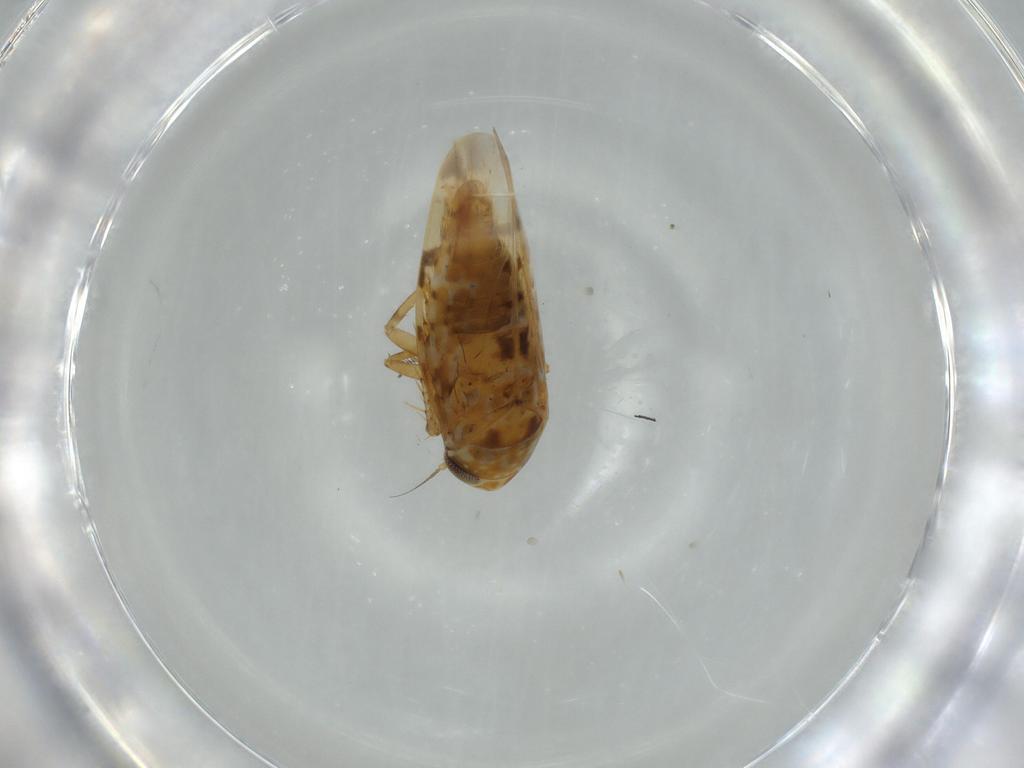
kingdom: Animalia
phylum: Arthropoda
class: Insecta
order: Hemiptera
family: Cicadellidae
